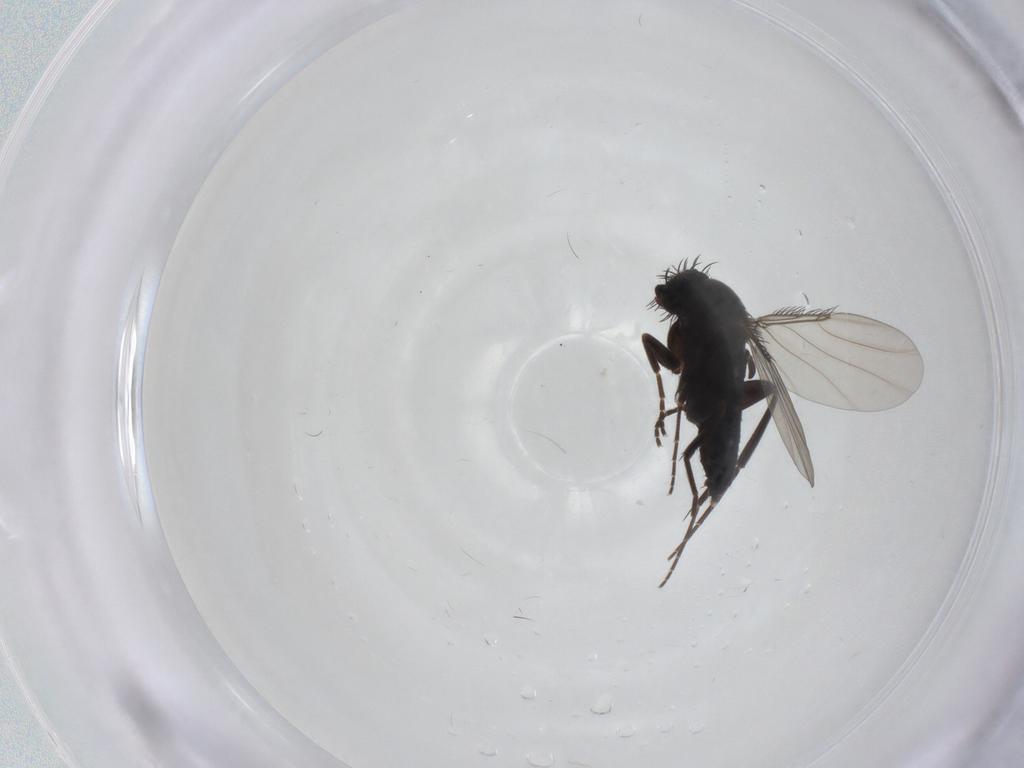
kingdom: Animalia
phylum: Arthropoda
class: Insecta
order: Diptera
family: Phoridae
